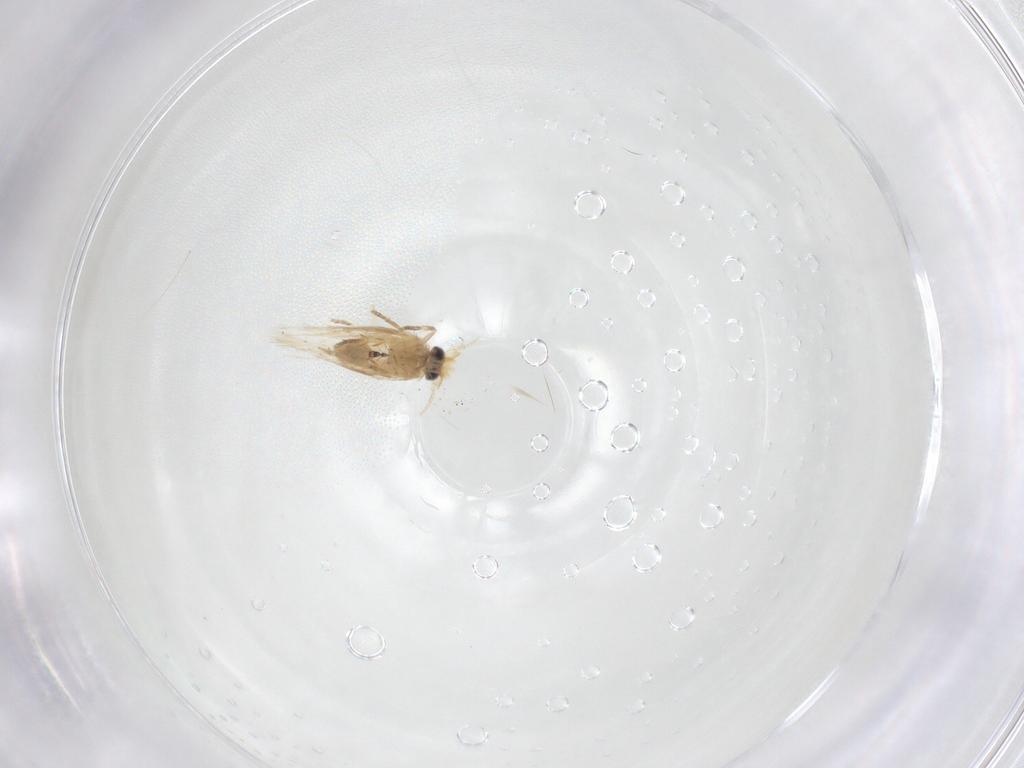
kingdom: Animalia
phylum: Arthropoda
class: Insecta
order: Lepidoptera
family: Nepticulidae
